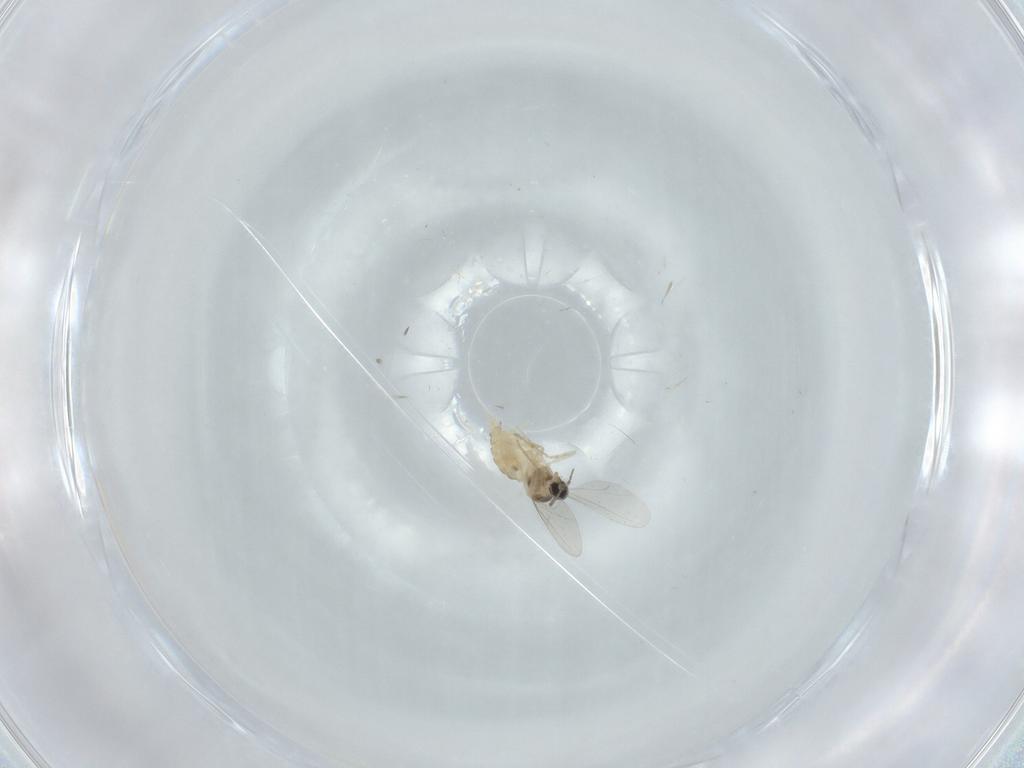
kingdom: Animalia
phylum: Arthropoda
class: Insecta
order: Diptera
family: Cecidomyiidae
